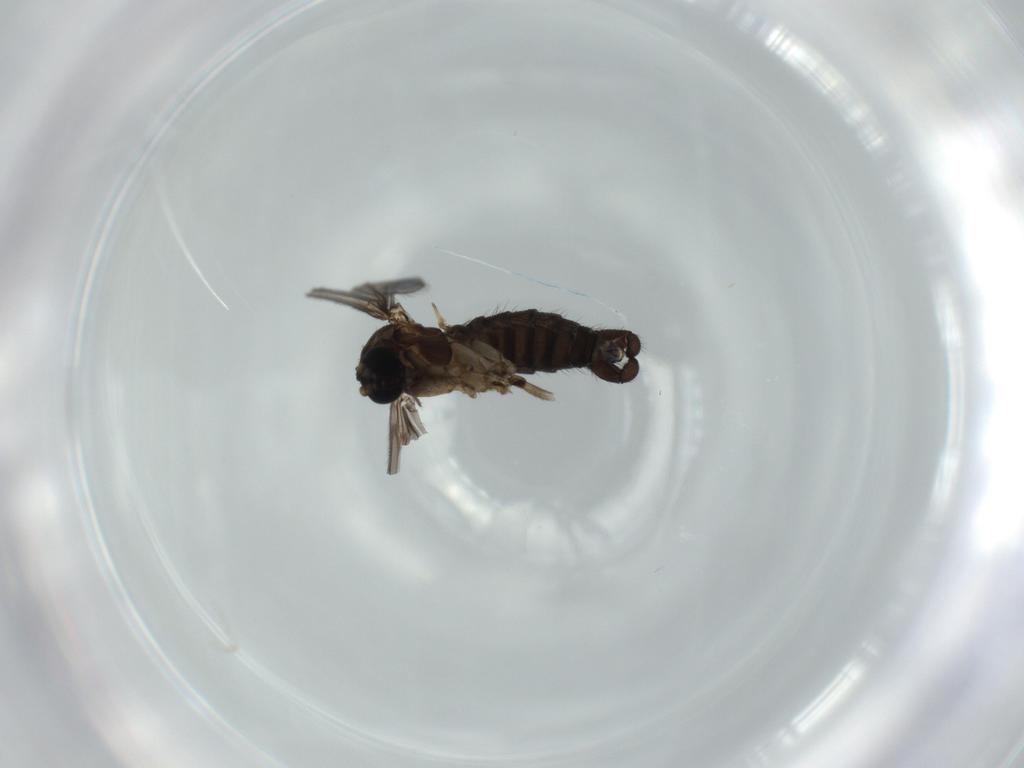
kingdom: Animalia
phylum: Arthropoda
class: Insecta
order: Diptera
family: Sciaridae
